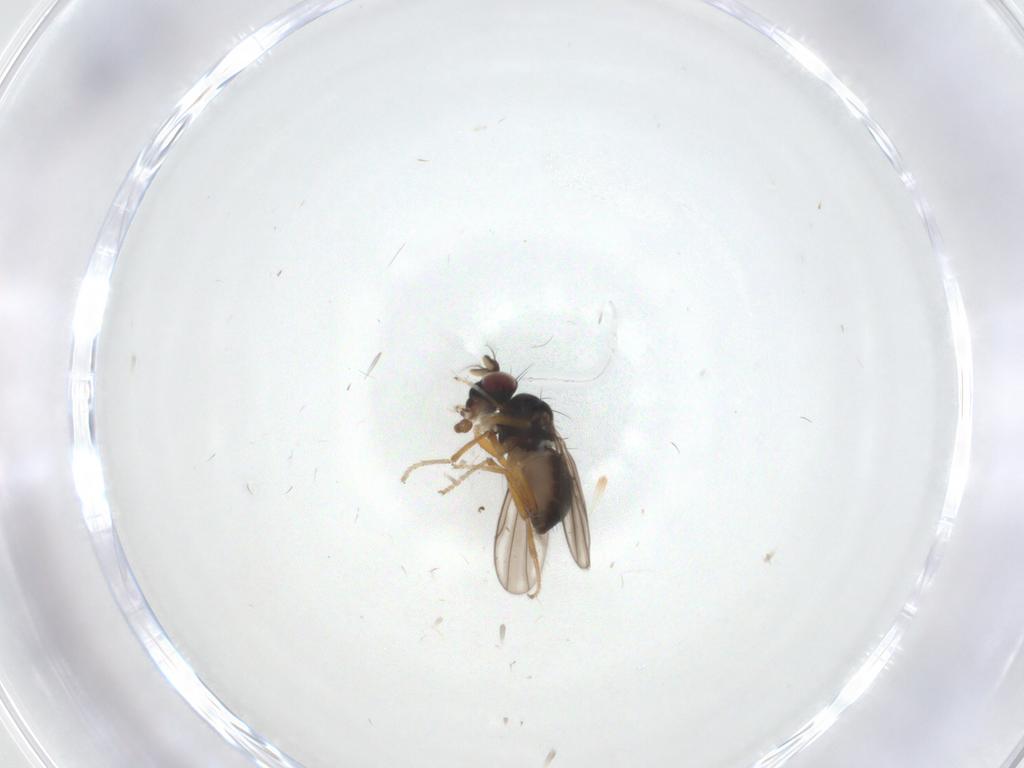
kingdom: Animalia
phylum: Arthropoda
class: Insecta
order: Diptera
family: Ephydridae
